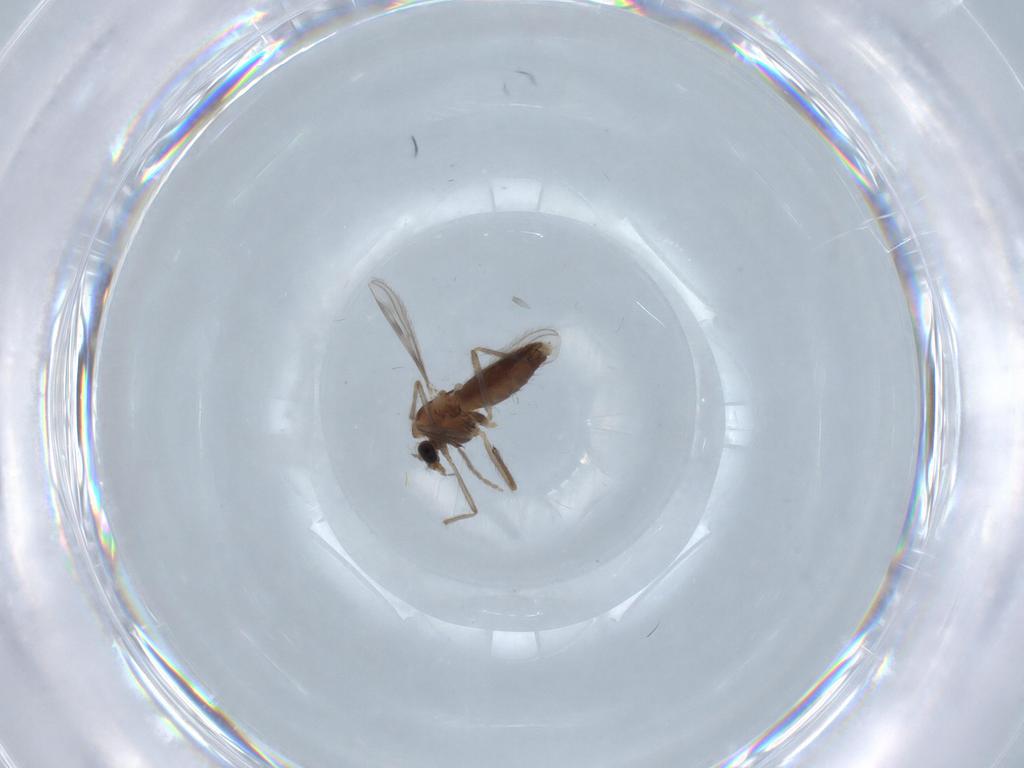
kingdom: Animalia
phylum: Arthropoda
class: Insecta
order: Diptera
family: Chironomidae
